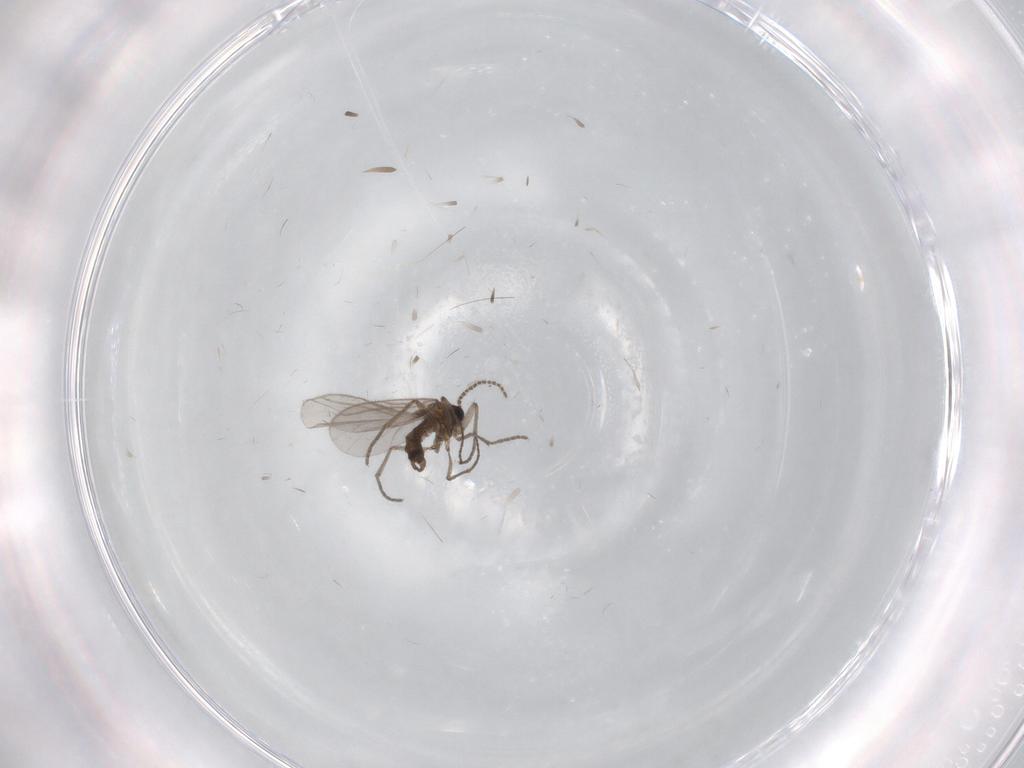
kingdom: Animalia
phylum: Arthropoda
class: Insecta
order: Diptera
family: Sciaridae
